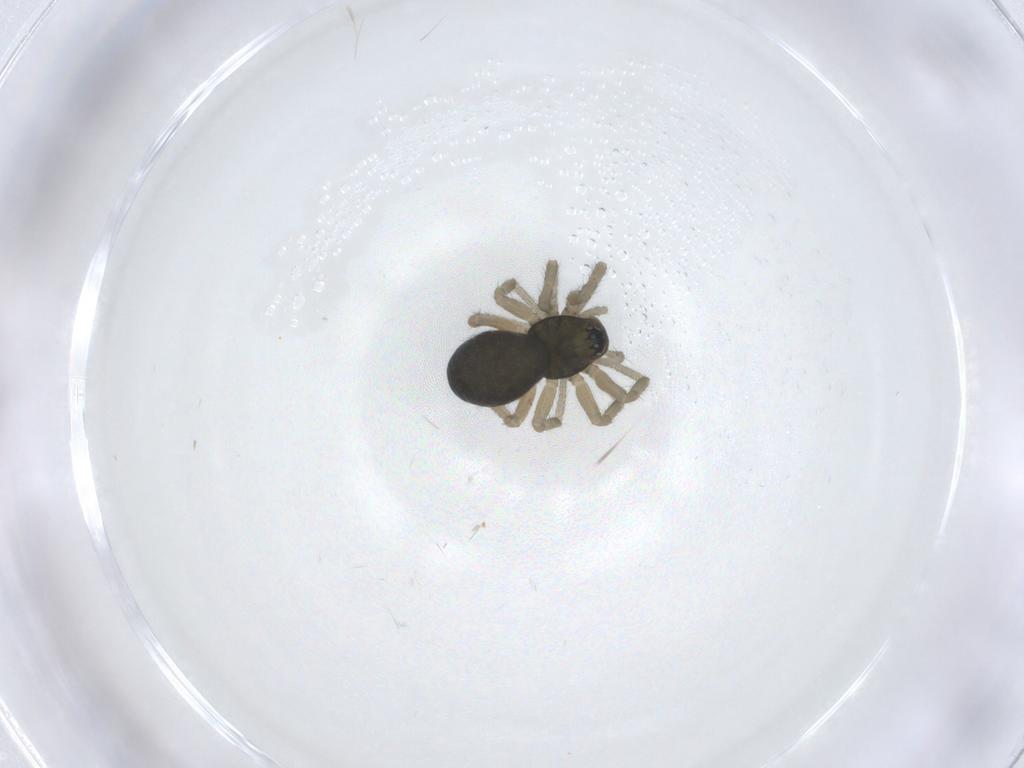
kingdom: Animalia
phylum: Arthropoda
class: Arachnida
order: Araneae
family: Linyphiidae
